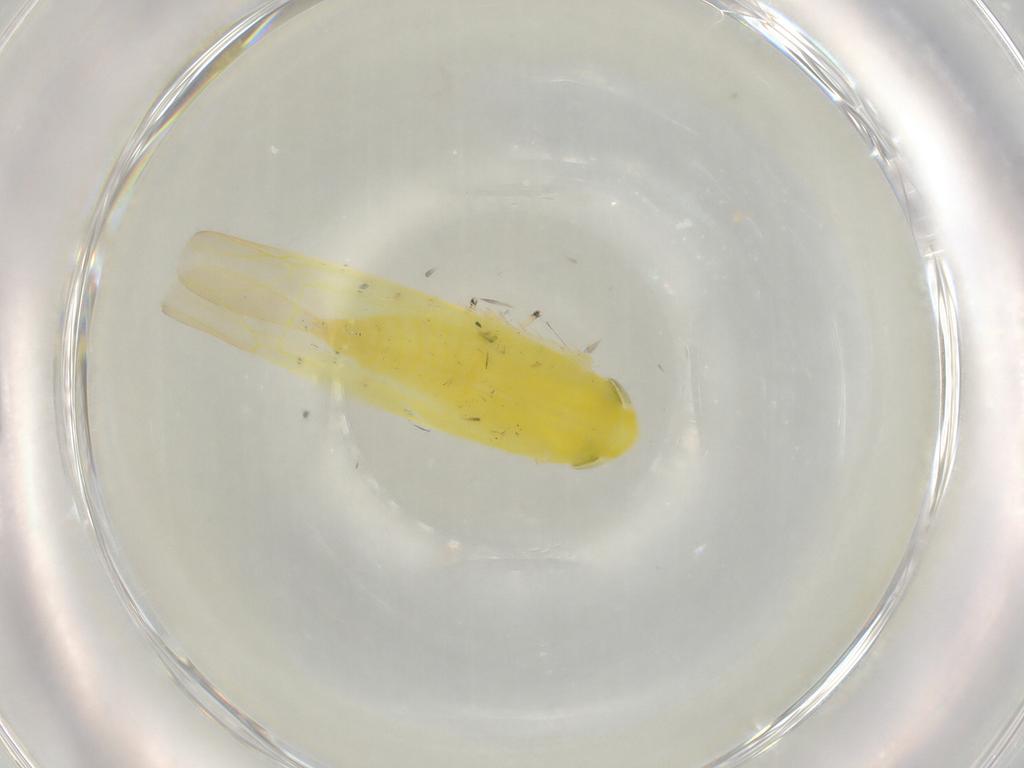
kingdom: Animalia
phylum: Arthropoda
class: Insecta
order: Hemiptera
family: Cicadellidae
